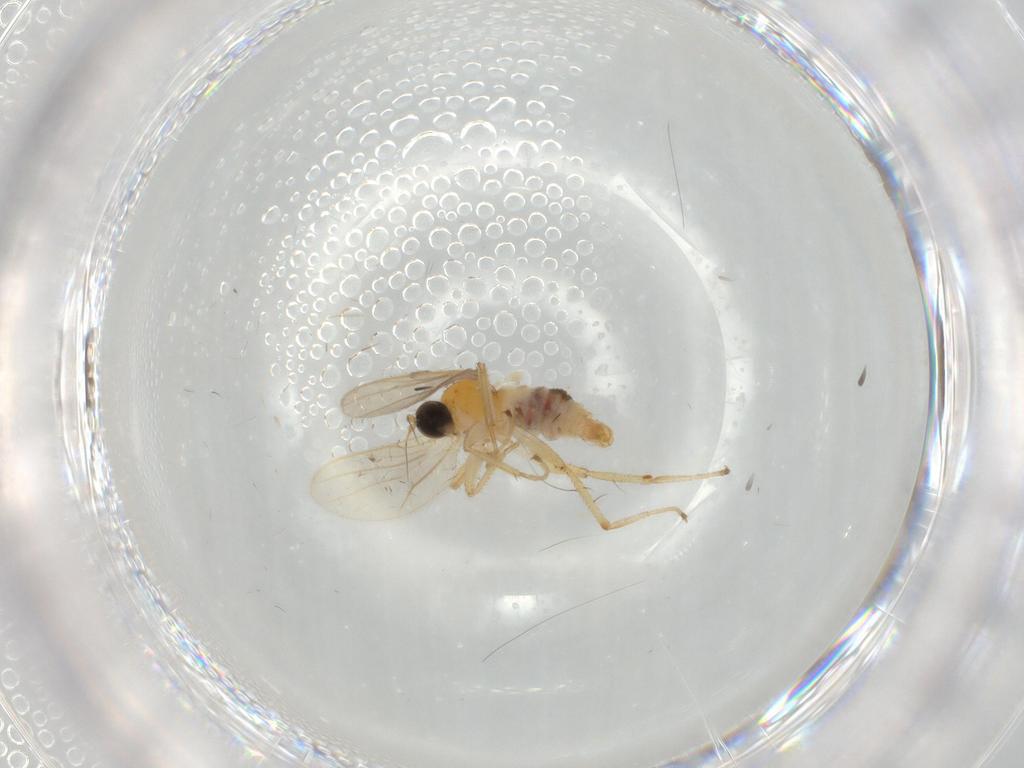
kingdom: Animalia
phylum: Arthropoda
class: Insecta
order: Diptera
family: Hybotidae
